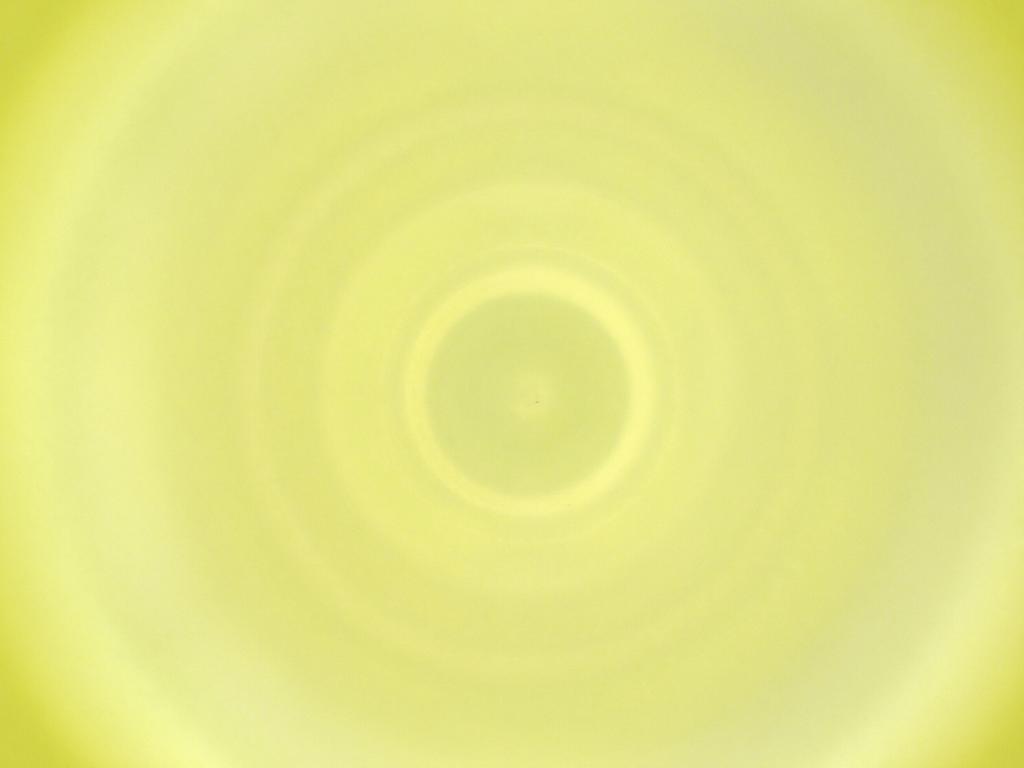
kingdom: Animalia
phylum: Arthropoda
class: Insecta
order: Diptera
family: Cecidomyiidae
